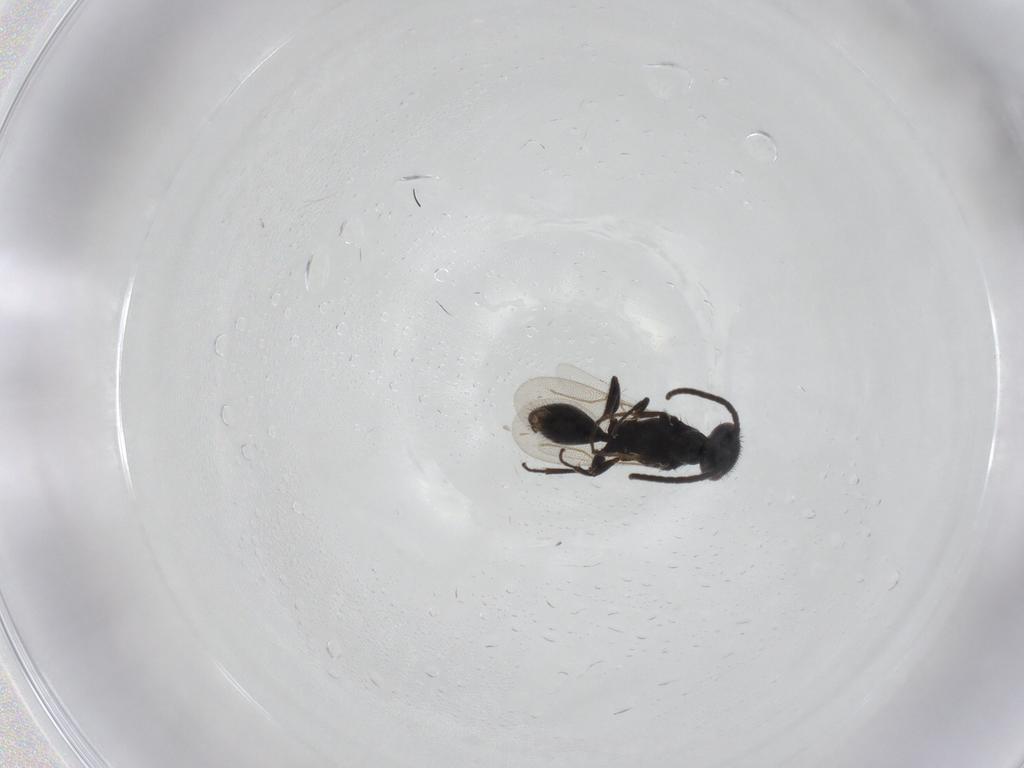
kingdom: Animalia
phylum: Arthropoda
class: Insecta
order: Hymenoptera
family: Bethylidae
